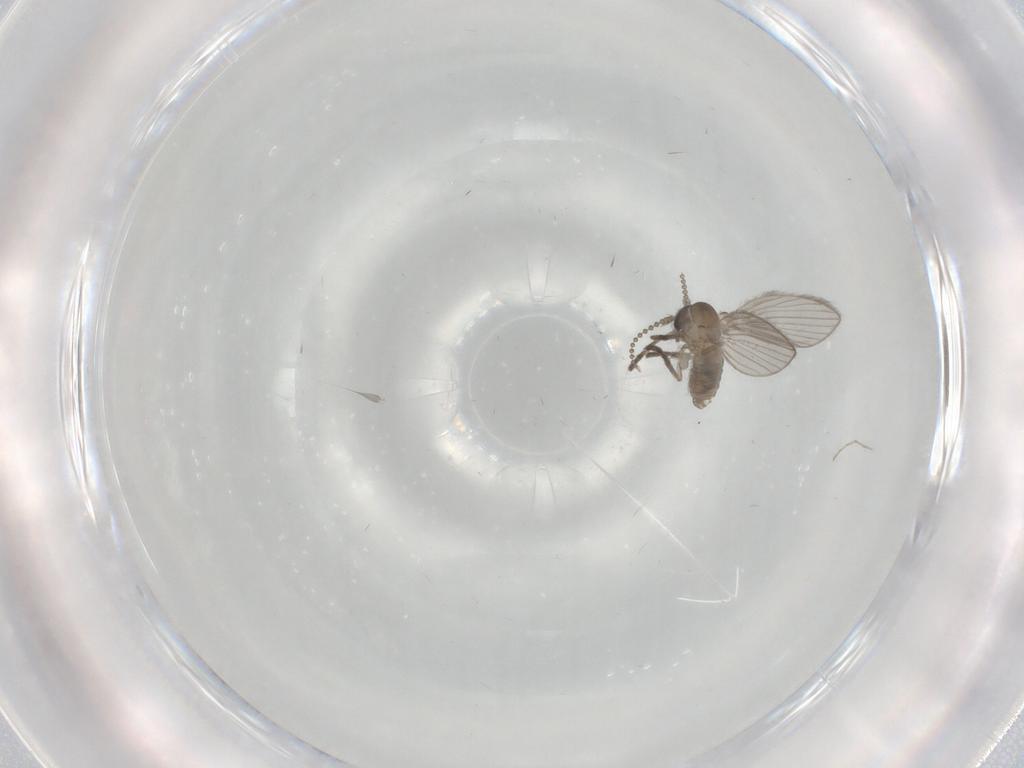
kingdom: Animalia
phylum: Arthropoda
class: Insecta
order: Diptera
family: Psychodidae
